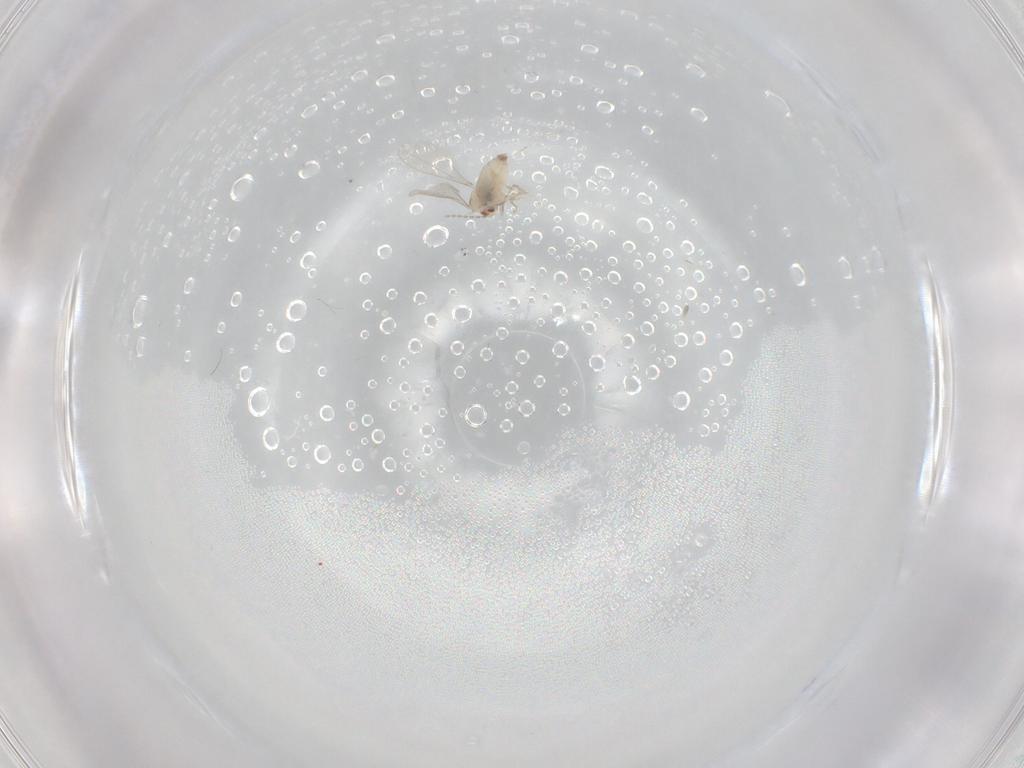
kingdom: Animalia
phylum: Arthropoda
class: Insecta
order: Diptera
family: Cecidomyiidae
